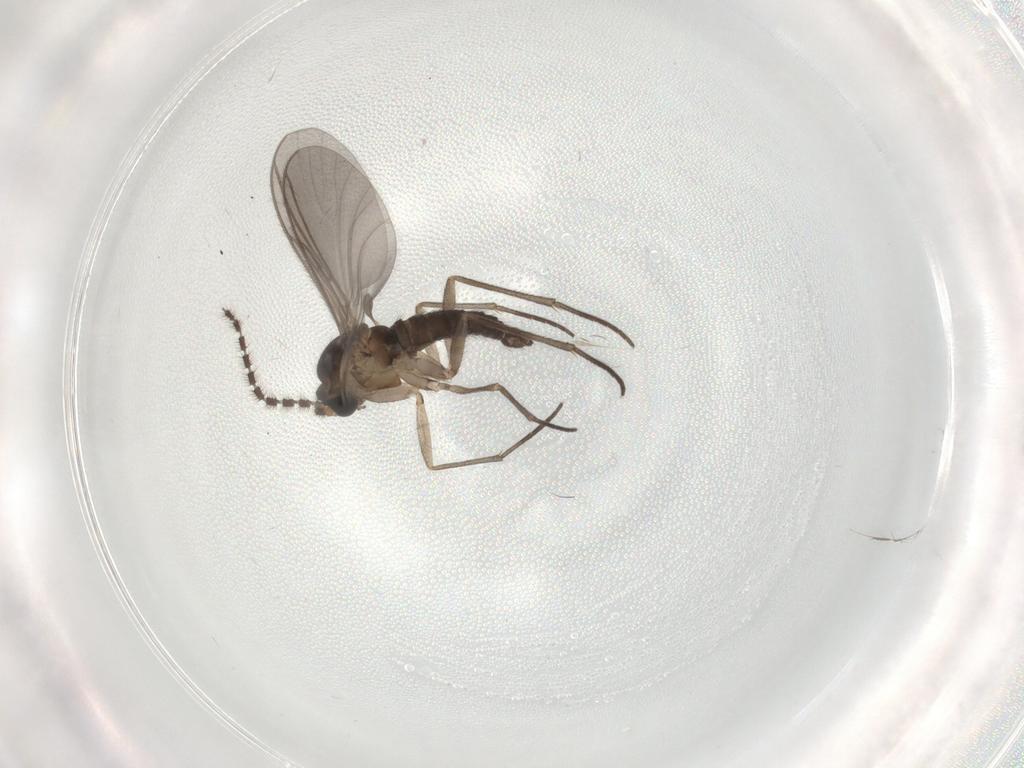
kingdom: Animalia
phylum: Arthropoda
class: Insecta
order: Diptera
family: Sciaridae
